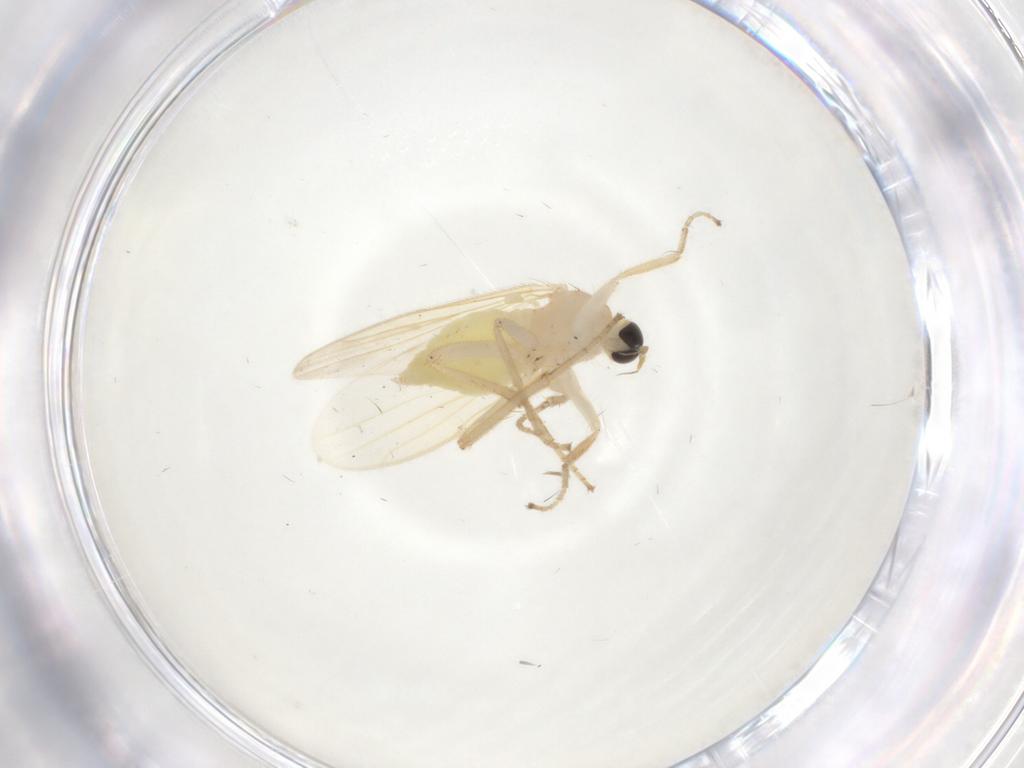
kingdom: Animalia
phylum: Arthropoda
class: Insecta
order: Diptera
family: Hybotidae
